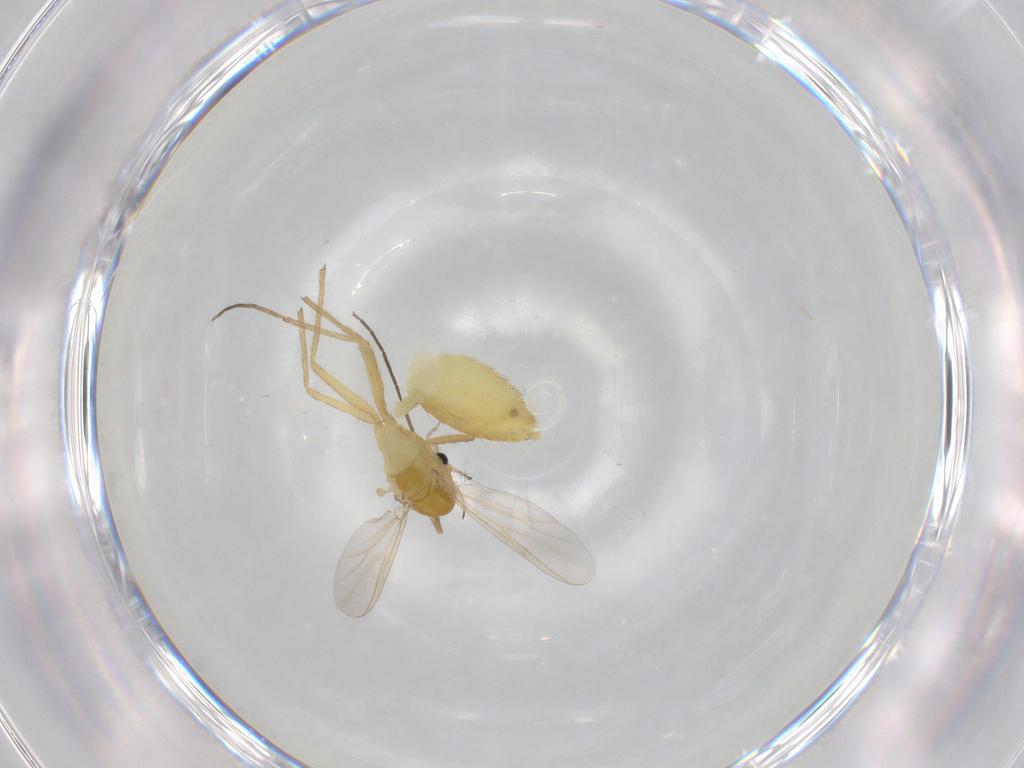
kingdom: Animalia
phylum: Arthropoda
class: Insecta
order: Diptera
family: Chironomidae
